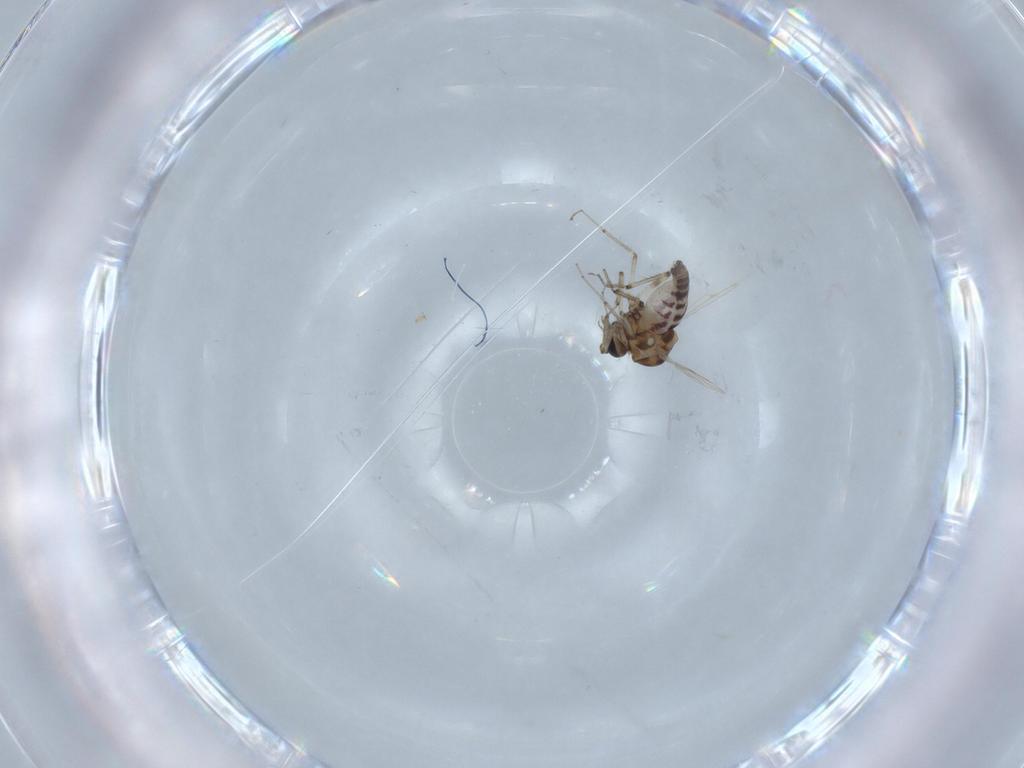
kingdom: Animalia
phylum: Arthropoda
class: Insecta
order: Diptera
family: Ceratopogonidae
